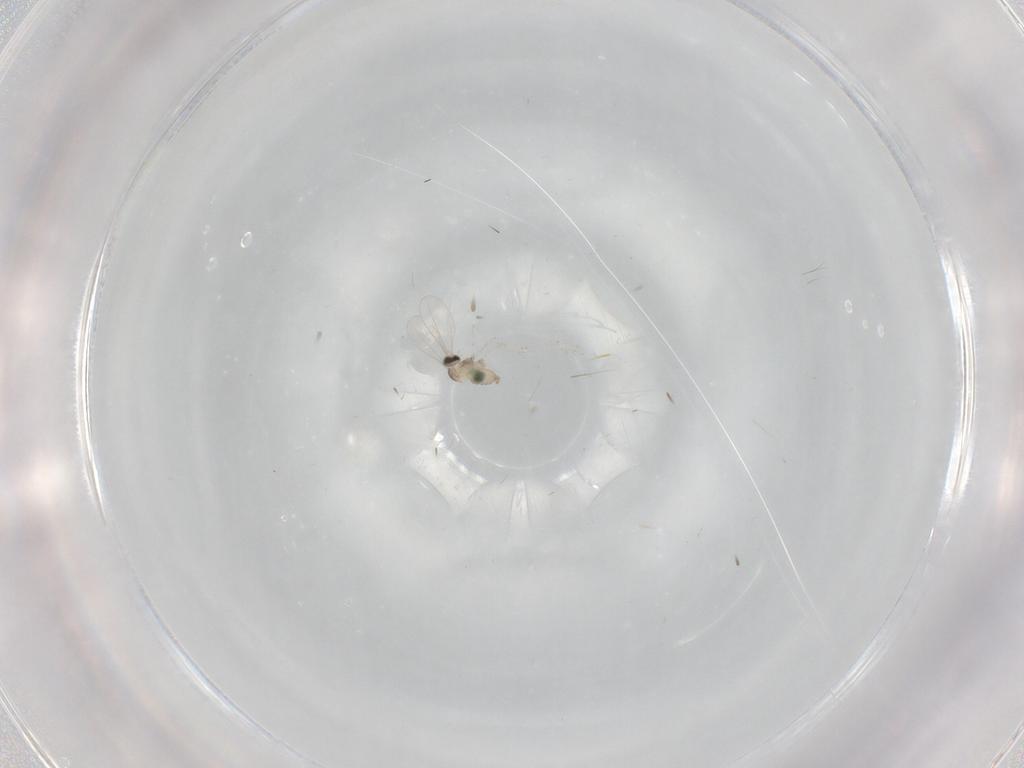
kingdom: Animalia
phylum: Arthropoda
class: Insecta
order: Diptera
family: Cecidomyiidae
